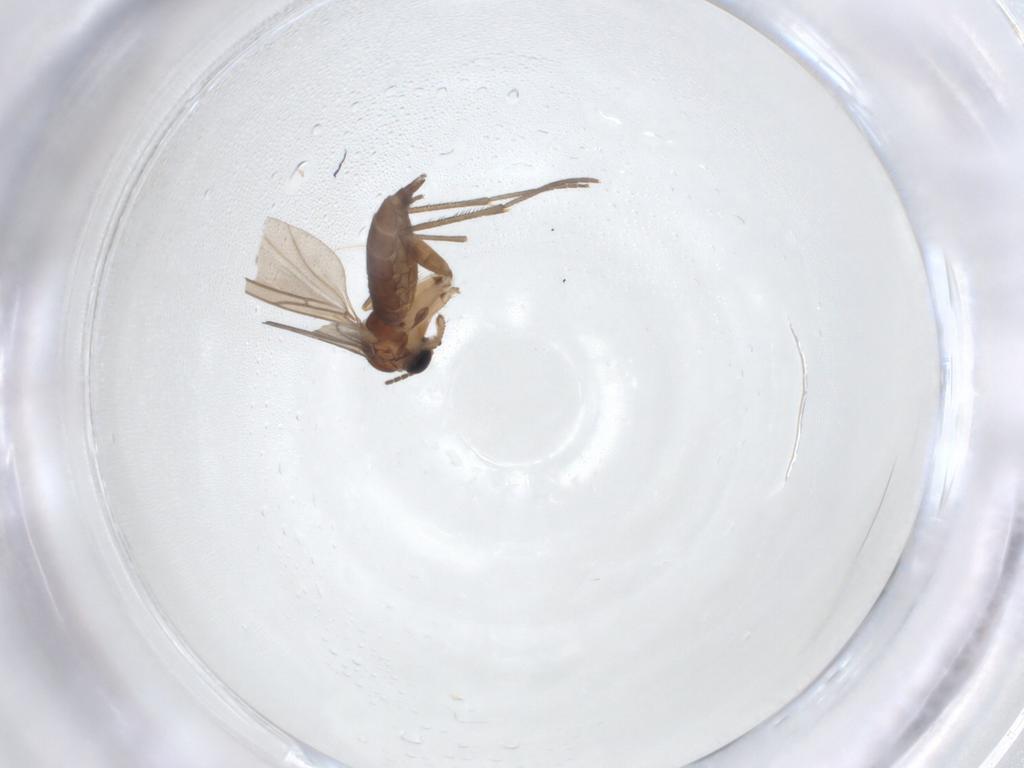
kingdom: Animalia
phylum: Arthropoda
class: Insecta
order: Diptera
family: Sciaridae
